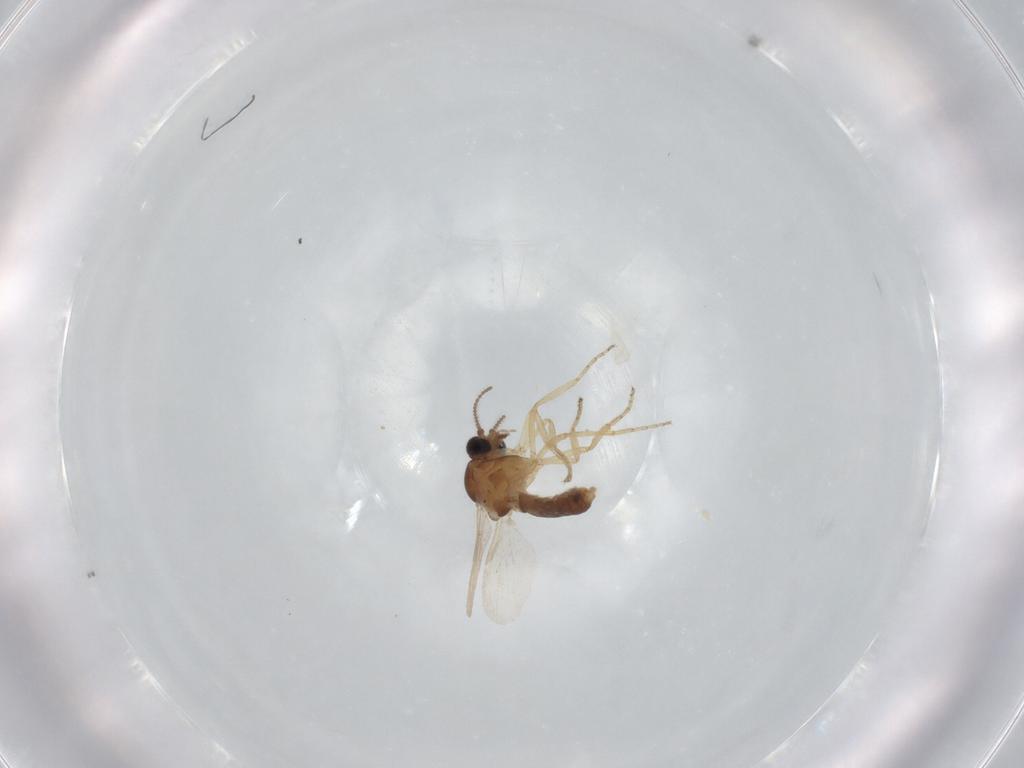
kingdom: Animalia
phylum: Arthropoda
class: Insecta
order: Diptera
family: Ceratopogonidae
